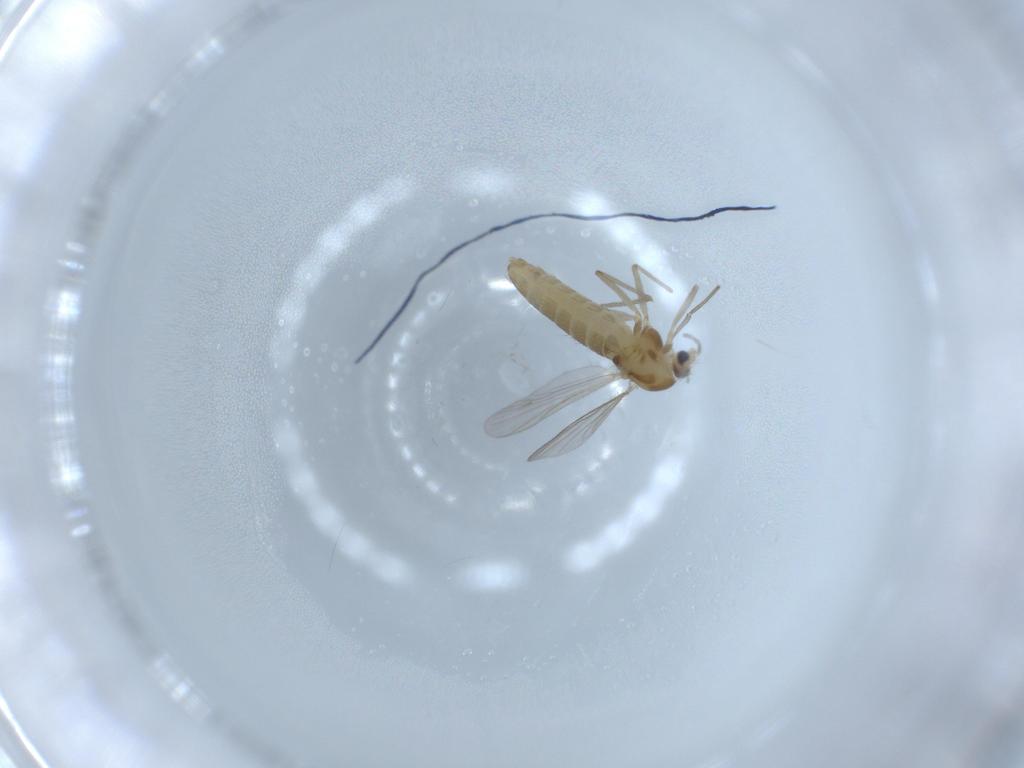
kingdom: Animalia
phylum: Arthropoda
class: Insecta
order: Diptera
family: Chironomidae
